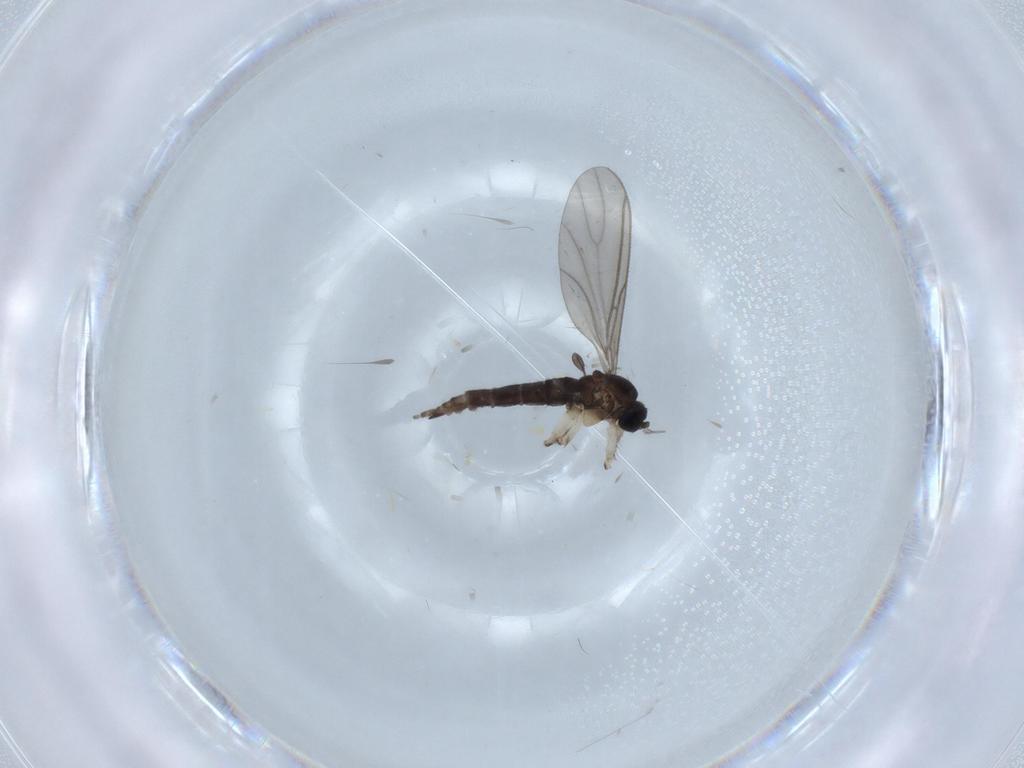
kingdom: Animalia
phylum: Arthropoda
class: Insecta
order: Diptera
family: Sciaridae
